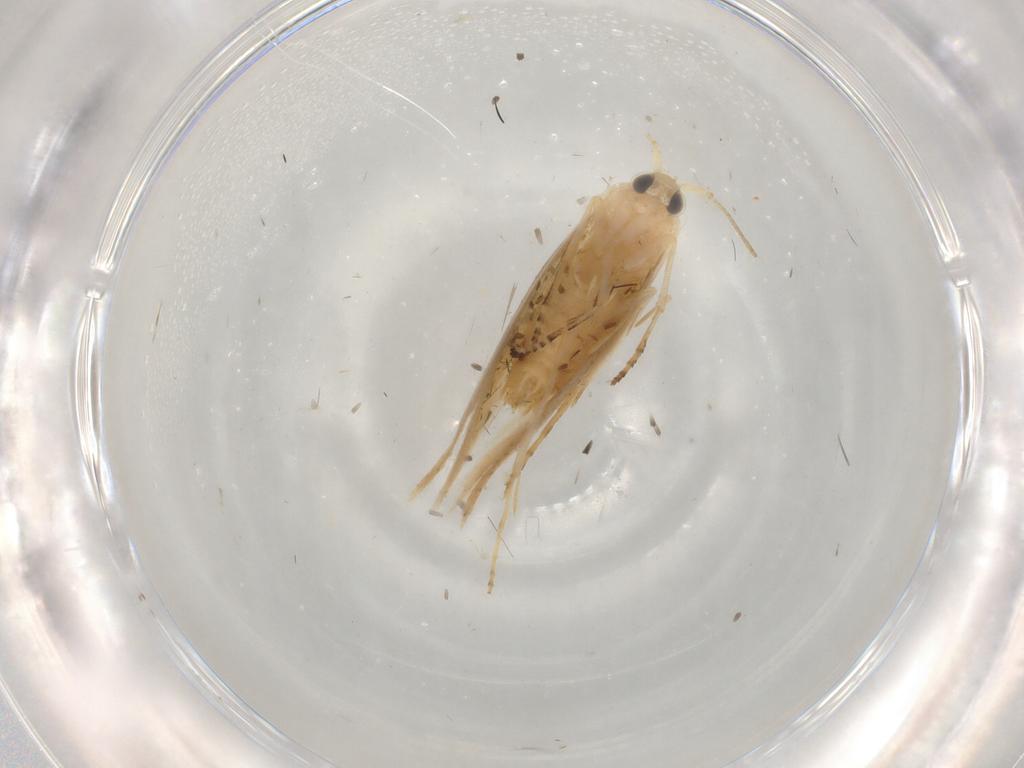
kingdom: Animalia
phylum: Arthropoda
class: Insecta
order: Lepidoptera
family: Bucculatricidae
